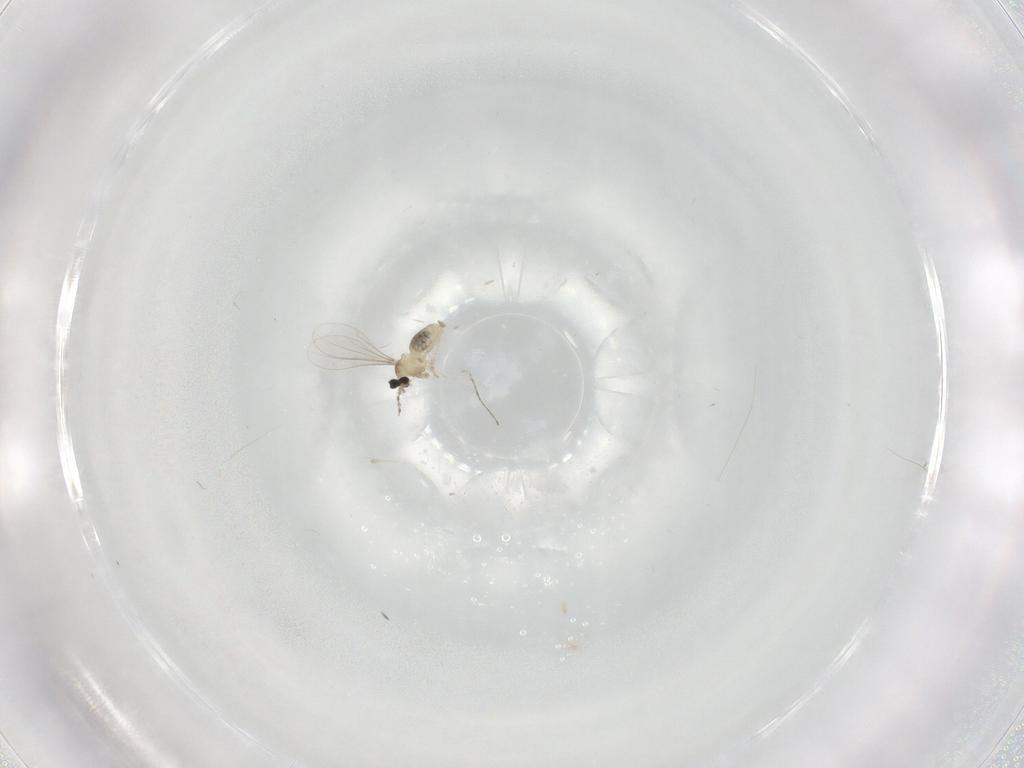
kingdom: Animalia
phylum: Arthropoda
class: Insecta
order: Diptera
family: Cecidomyiidae
